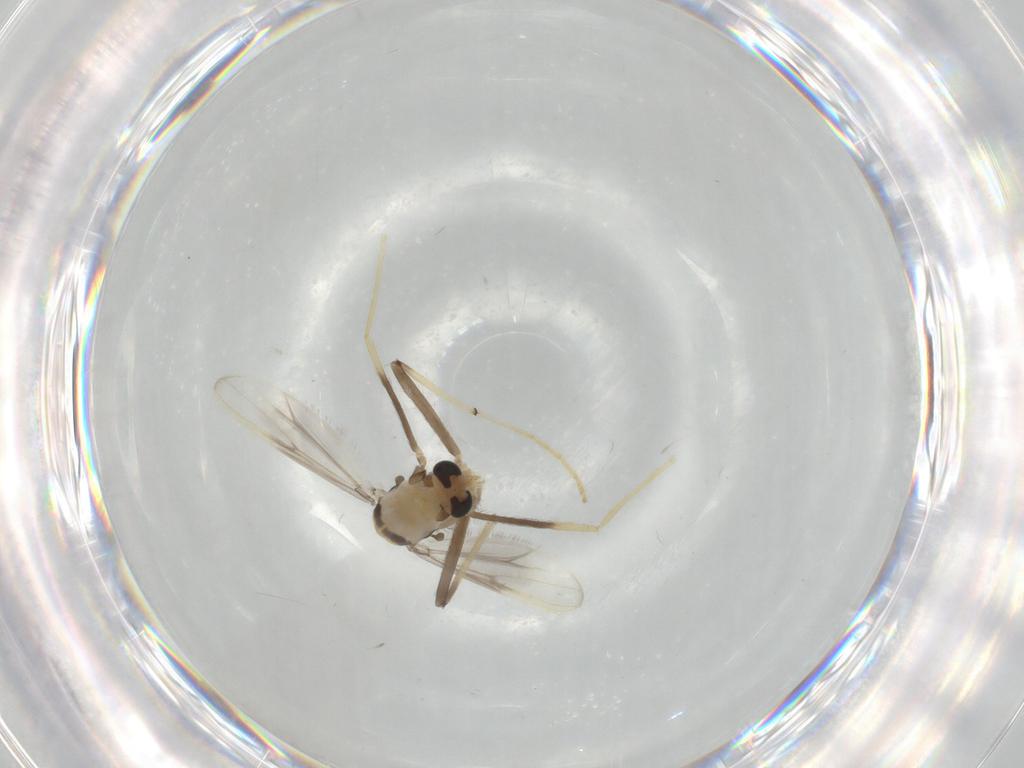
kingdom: Animalia
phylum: Arthropoda
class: Insecta
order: Diptera
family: Chironomidae
